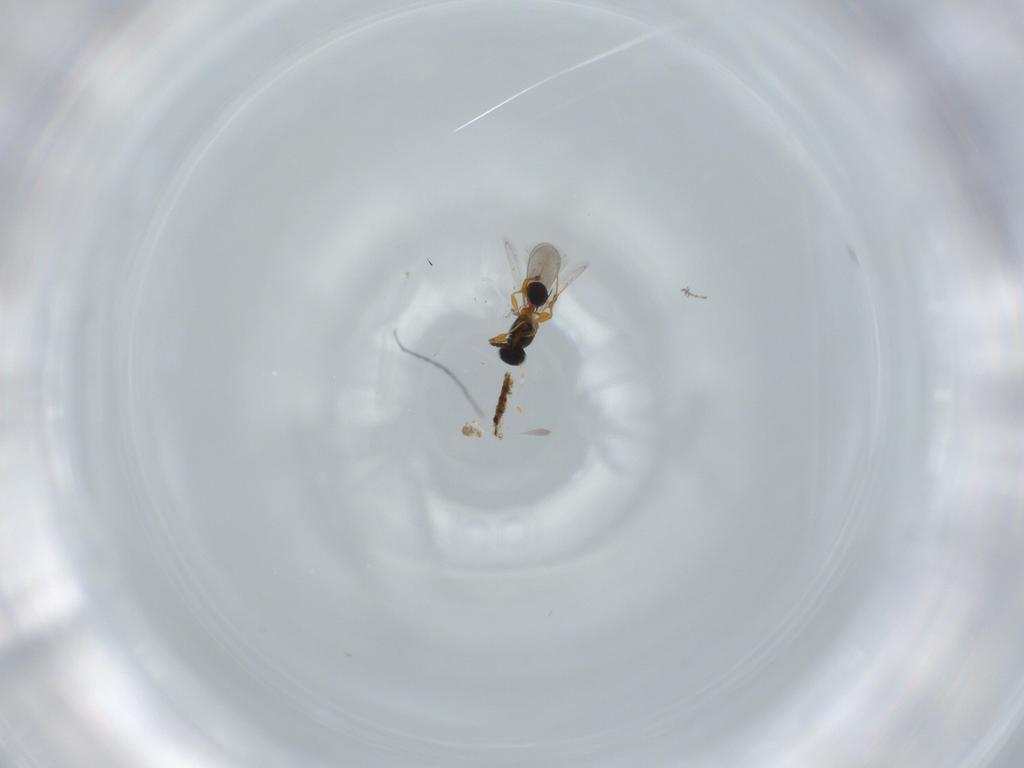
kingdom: Animalia
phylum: Arthropoda
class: Insecta
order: Hymenoptera
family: Platygastridae
